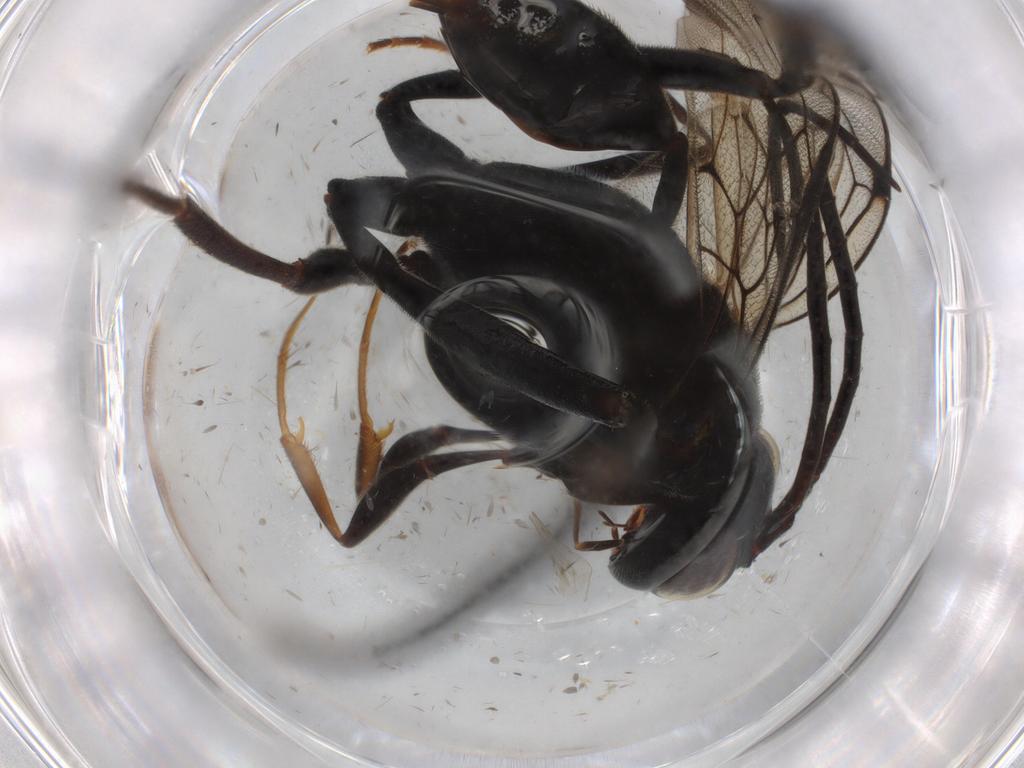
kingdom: Animalia
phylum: Arthropoda
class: Insecta
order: Hymenoptera
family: Evaniidae
